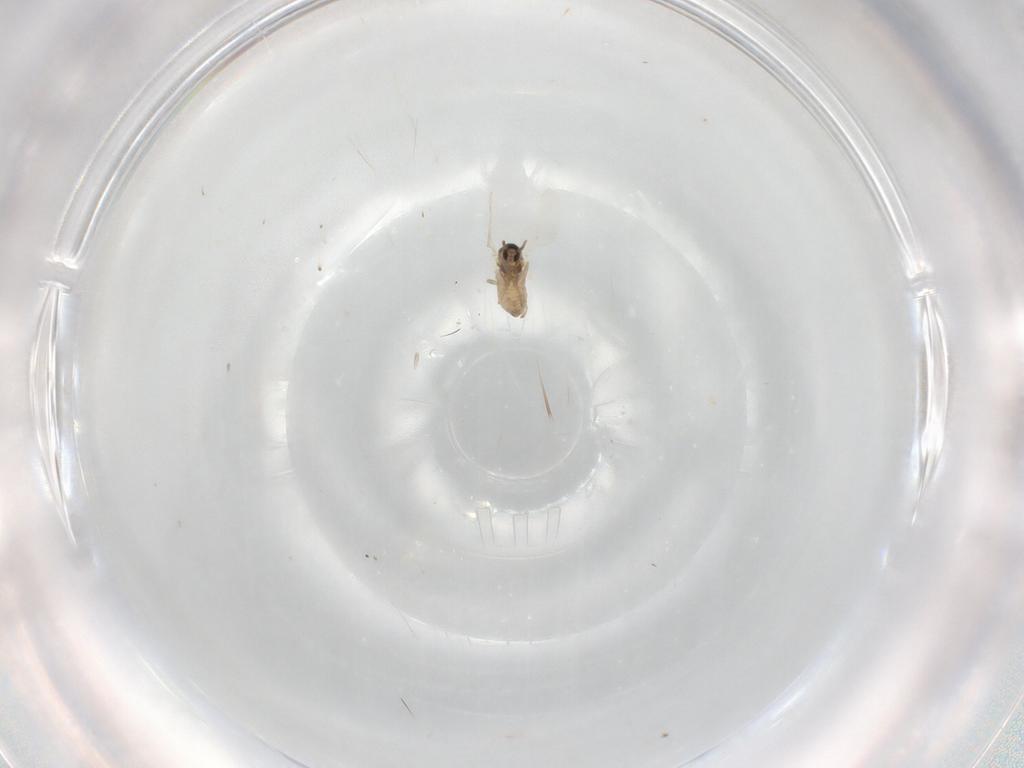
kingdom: Animalia
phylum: Arthropoda
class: Insecta
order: Diptera
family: Cecidomyiidae
